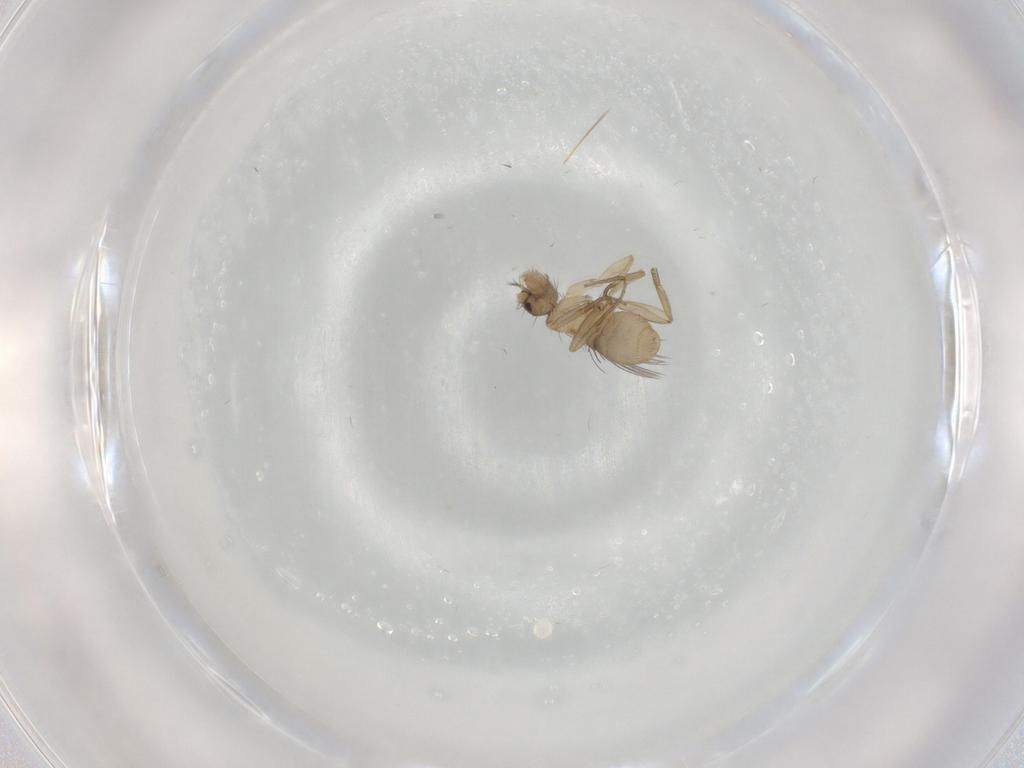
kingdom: Animalia
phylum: Arthropoda
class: Insecta
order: Diptera
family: Phoridae
